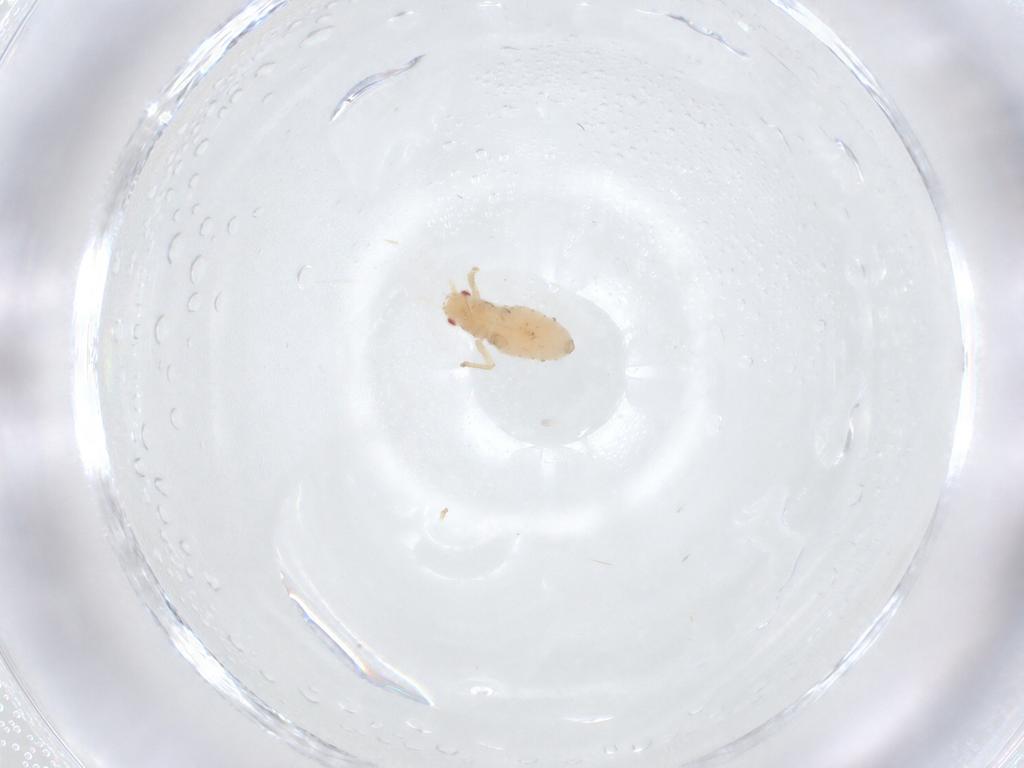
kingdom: Animalia
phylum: Arthropoda
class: Insecta
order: Hemiptera
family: Aphididae
